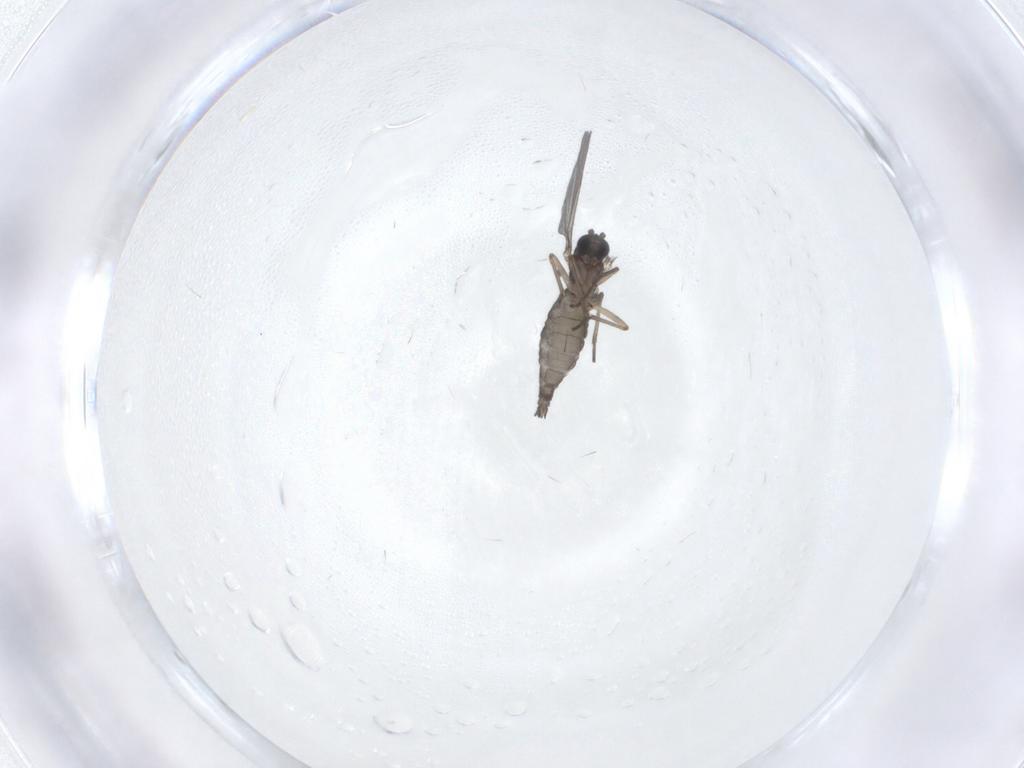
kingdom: Animalia
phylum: Arthropoda
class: Insecta
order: Diptera
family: Sciaridae
